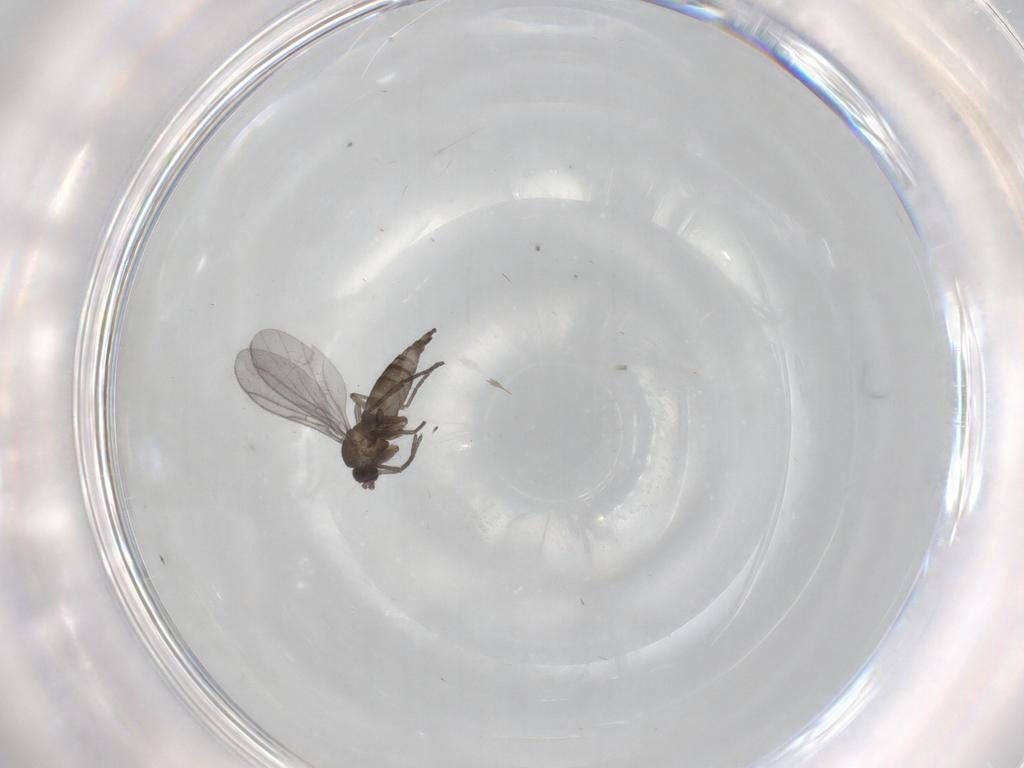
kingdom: Animalia
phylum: Arthropoda
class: Insecta
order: Diptera
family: Sciaridae
